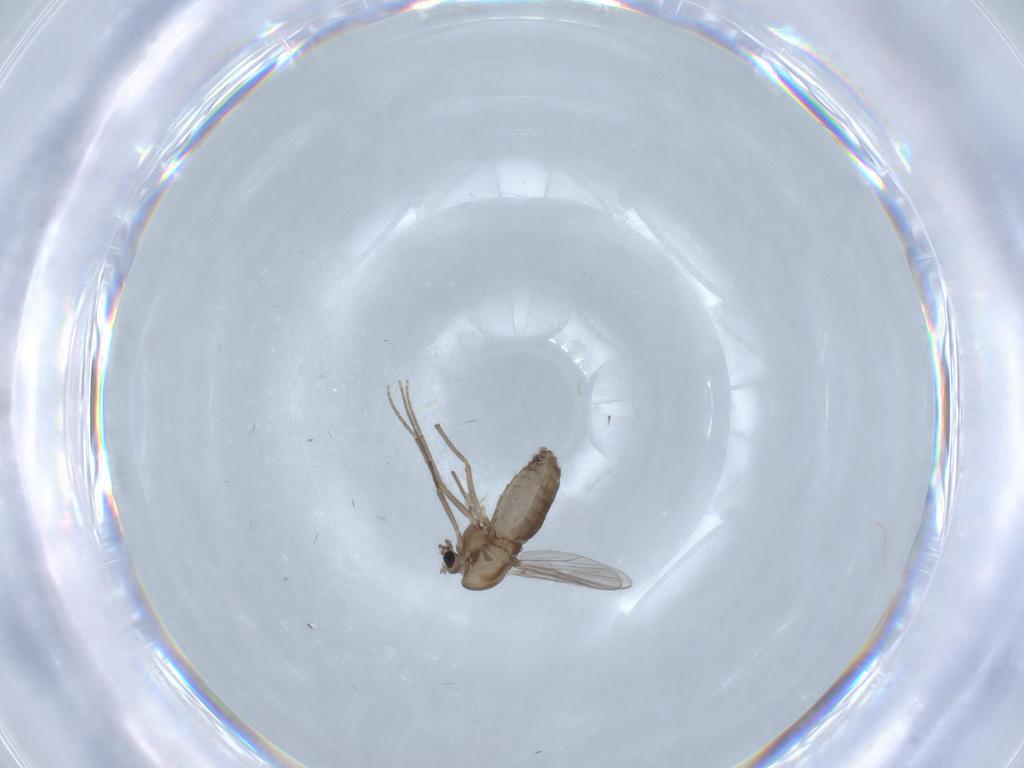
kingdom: Animalia
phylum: Arthropoda
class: Insecta
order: Diptera
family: Chironomidae
